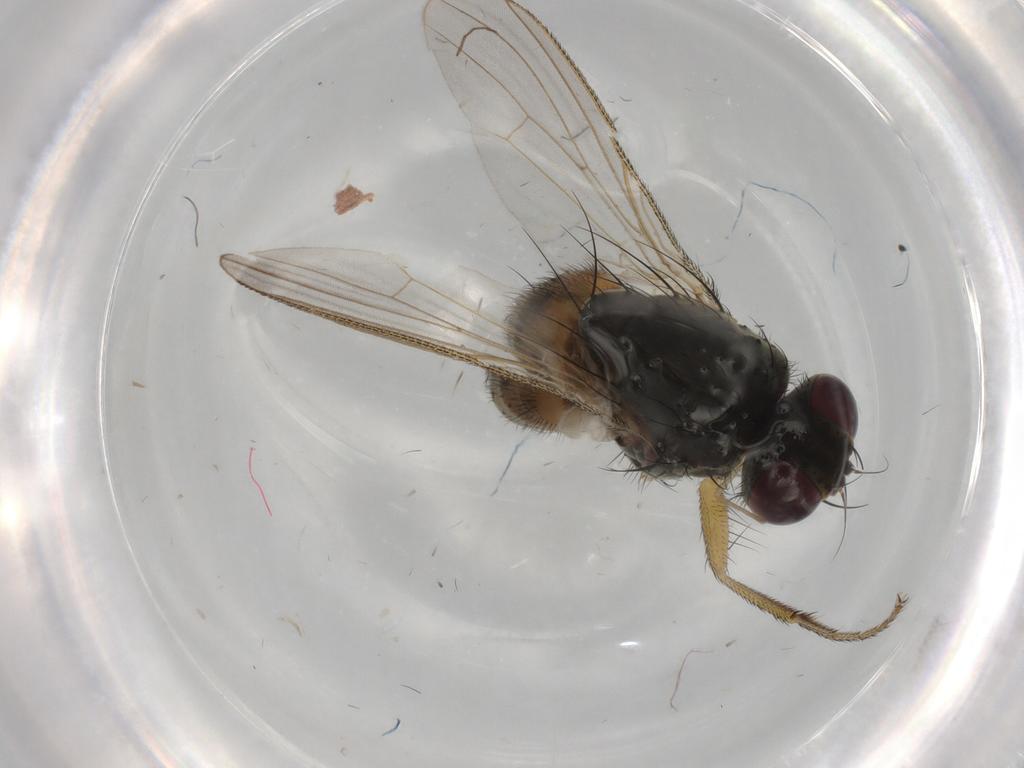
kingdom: Animalia
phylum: Arthropoda
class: Insecta
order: Diptera
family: Muscidae
